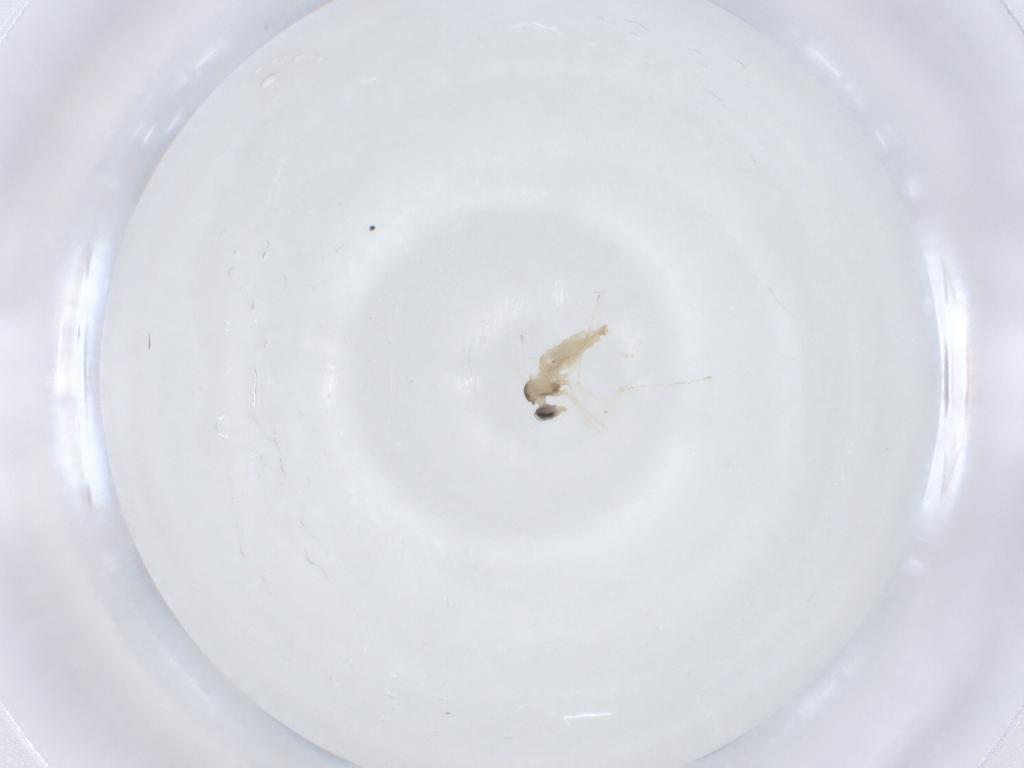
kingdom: Animalia
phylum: Arthropoda
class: Insecta
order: Diptera
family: Cecidomyiidae
